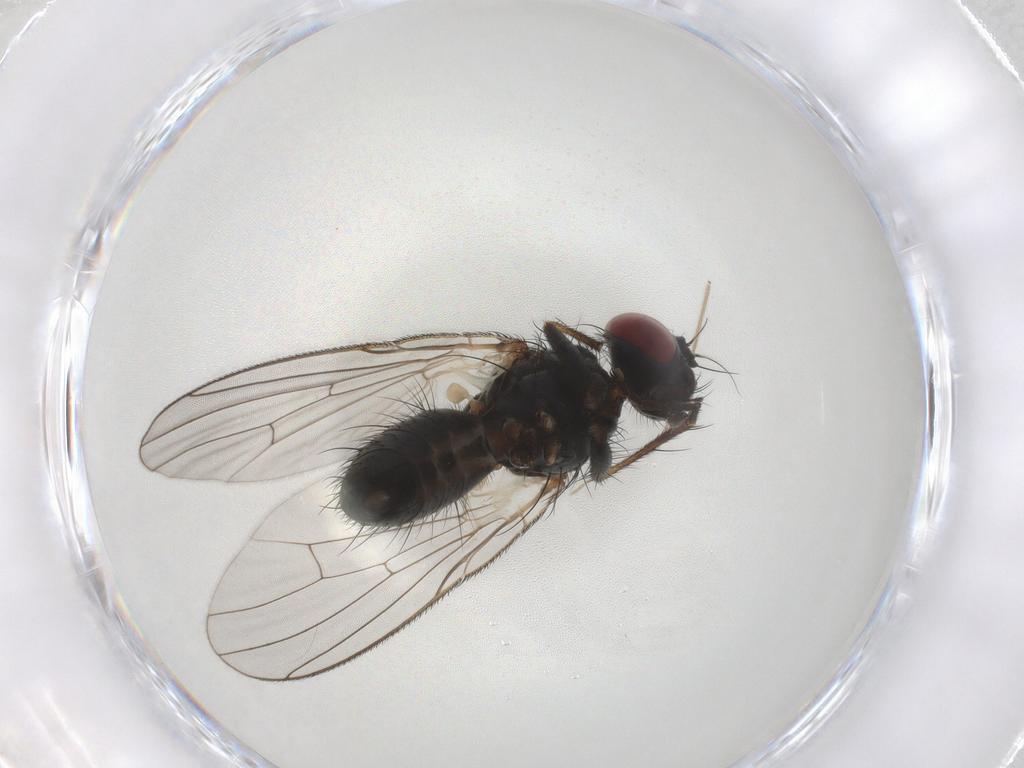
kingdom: Animalia
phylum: Arthropoda
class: Insecta
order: Diptera
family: Muscidae
